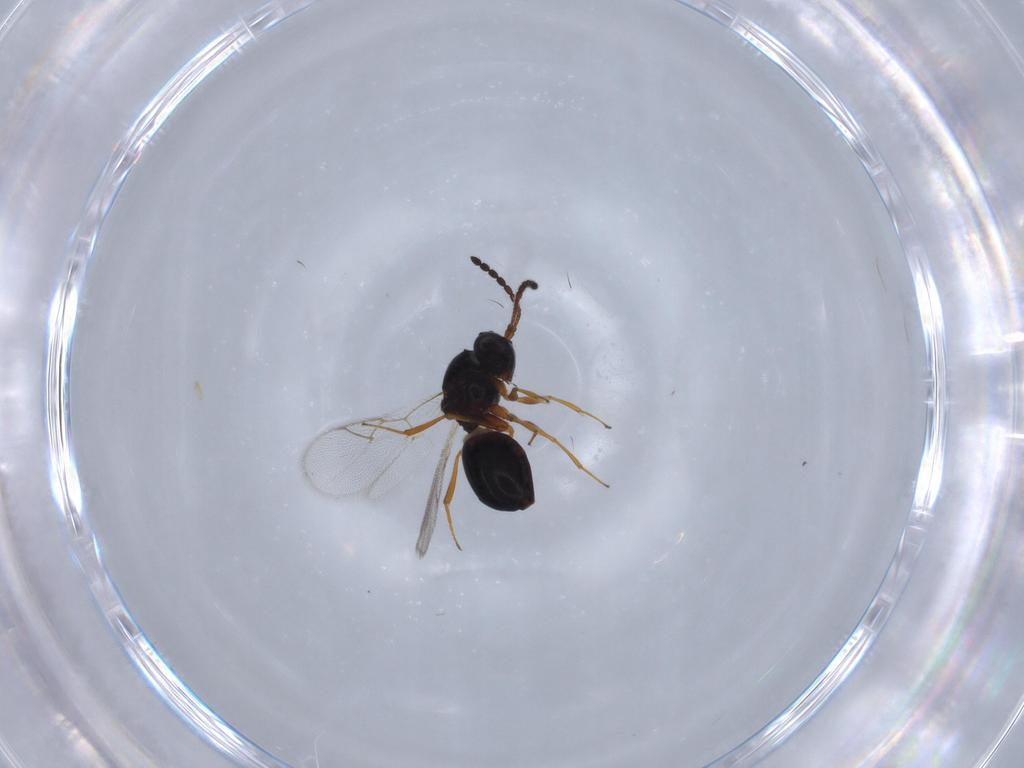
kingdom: Animalia
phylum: Arthropoda
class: Insecta
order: Hymenoptera
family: Figitidae
